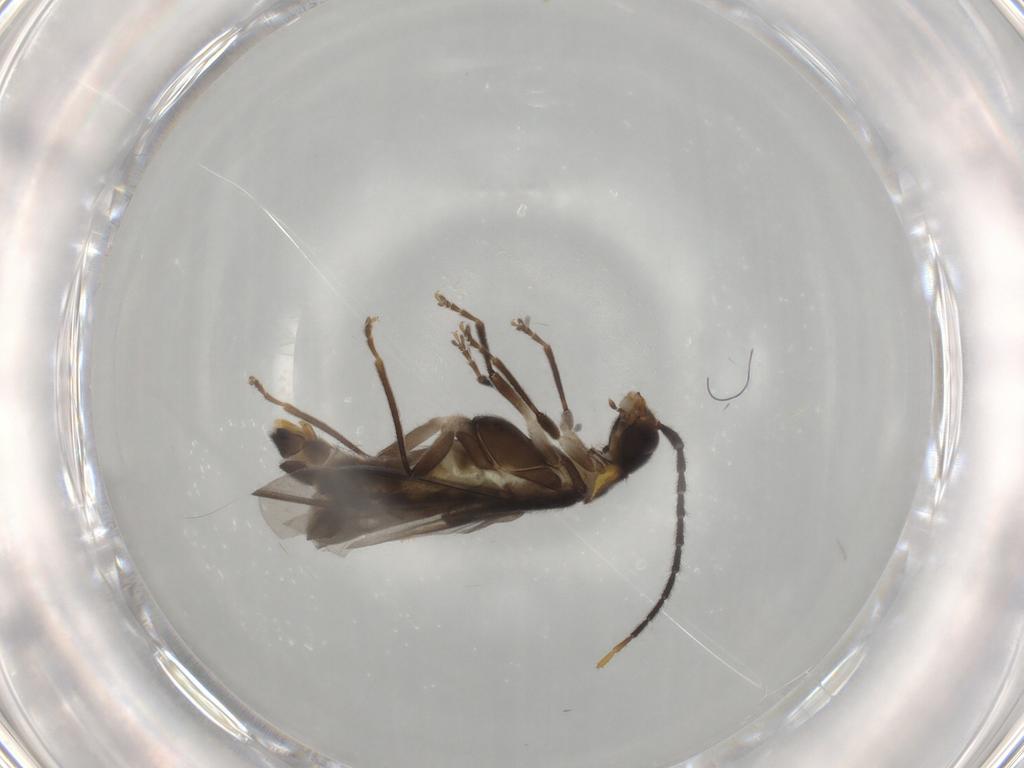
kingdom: Animalia
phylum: Arthropoda
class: Insecta
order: Coleoptera
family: Cantharidae
